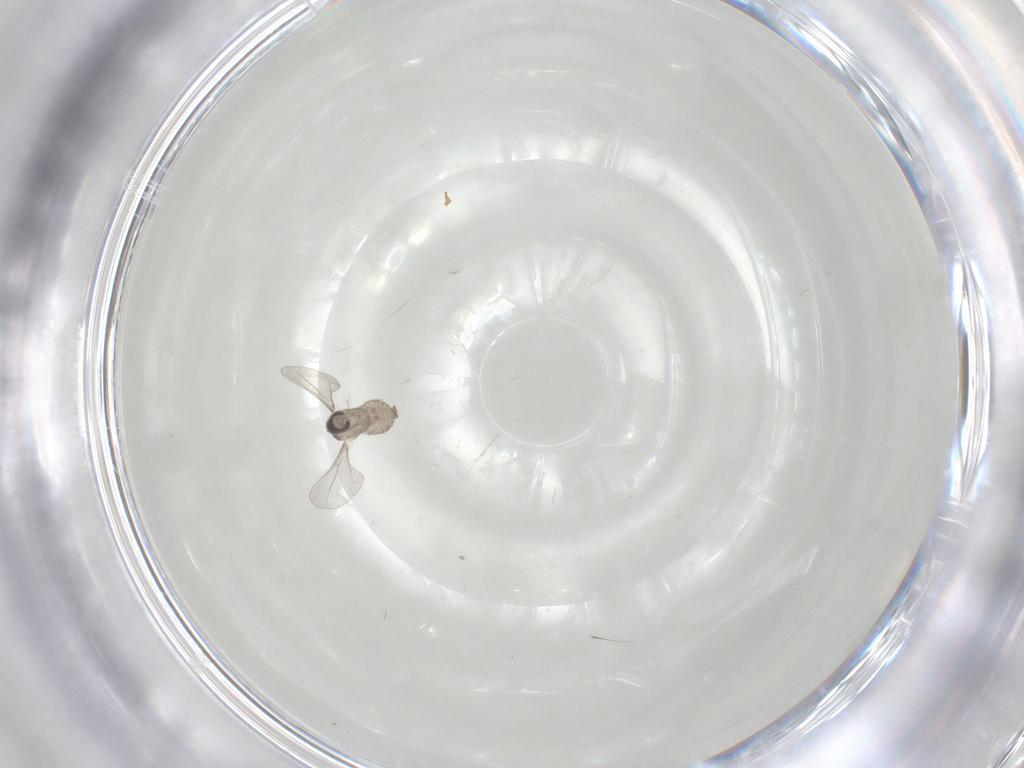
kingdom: Animalia
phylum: Arthropoda
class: Insecta
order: Diptera
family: Cecidomyiidae
